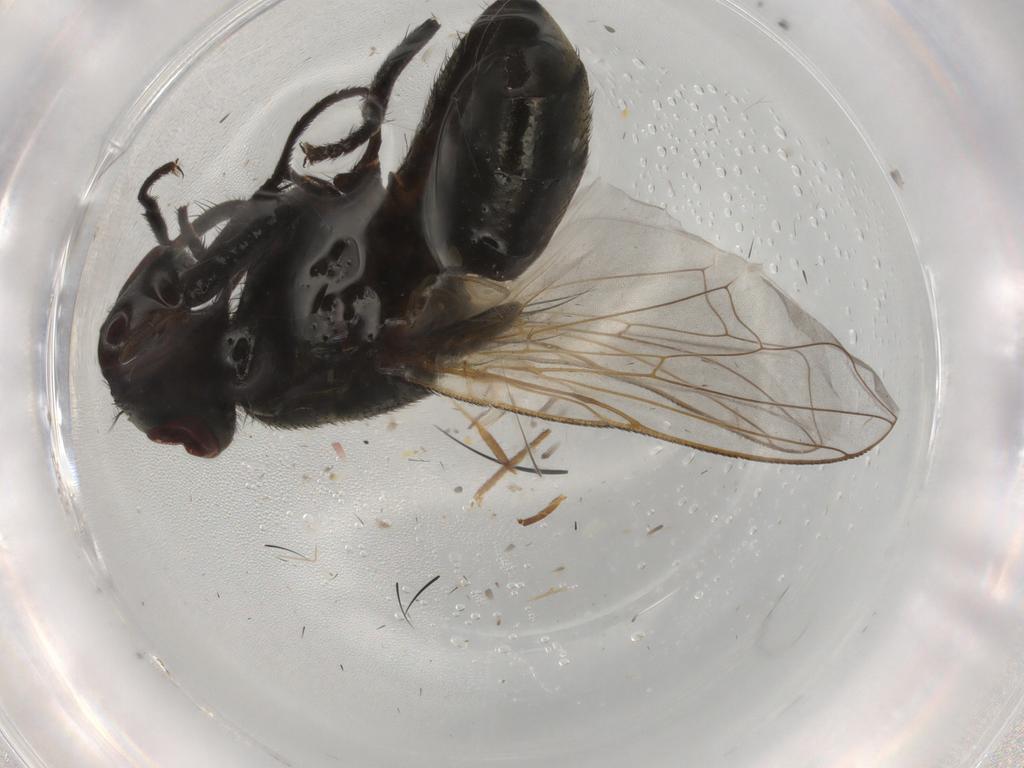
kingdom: Animalia
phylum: Arthropoda
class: Insecta
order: Diptera
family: Muscidae
